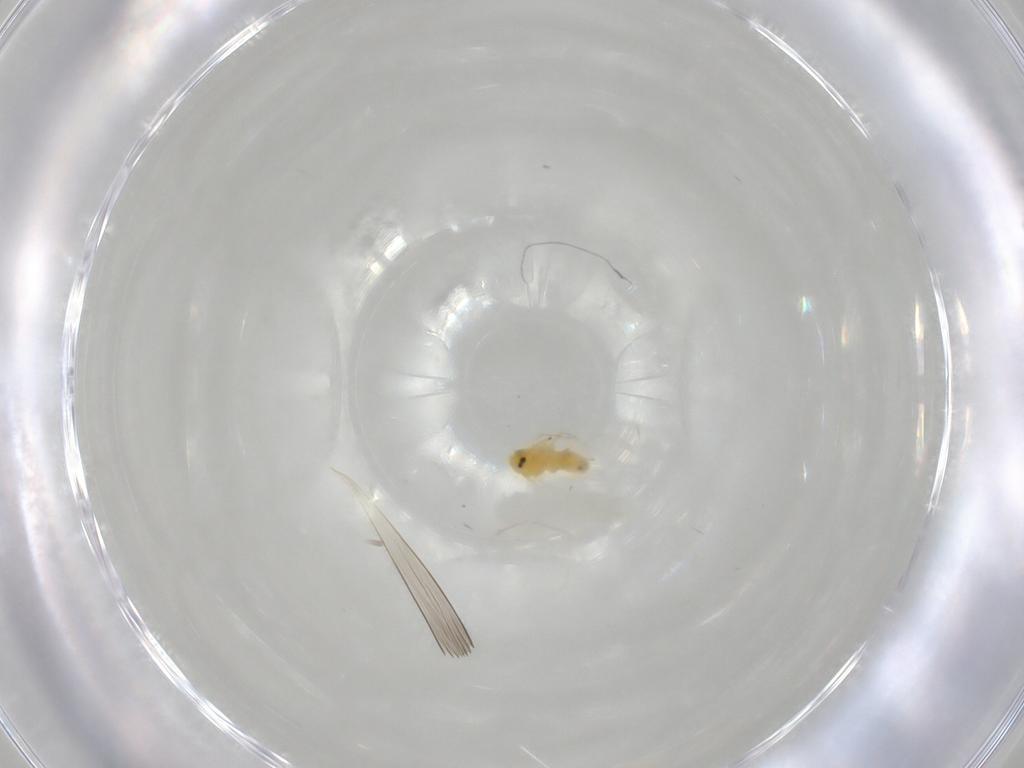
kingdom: Animalia
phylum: Arthropoda
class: Insecta
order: Hemiptera
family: Aleyrodidae
